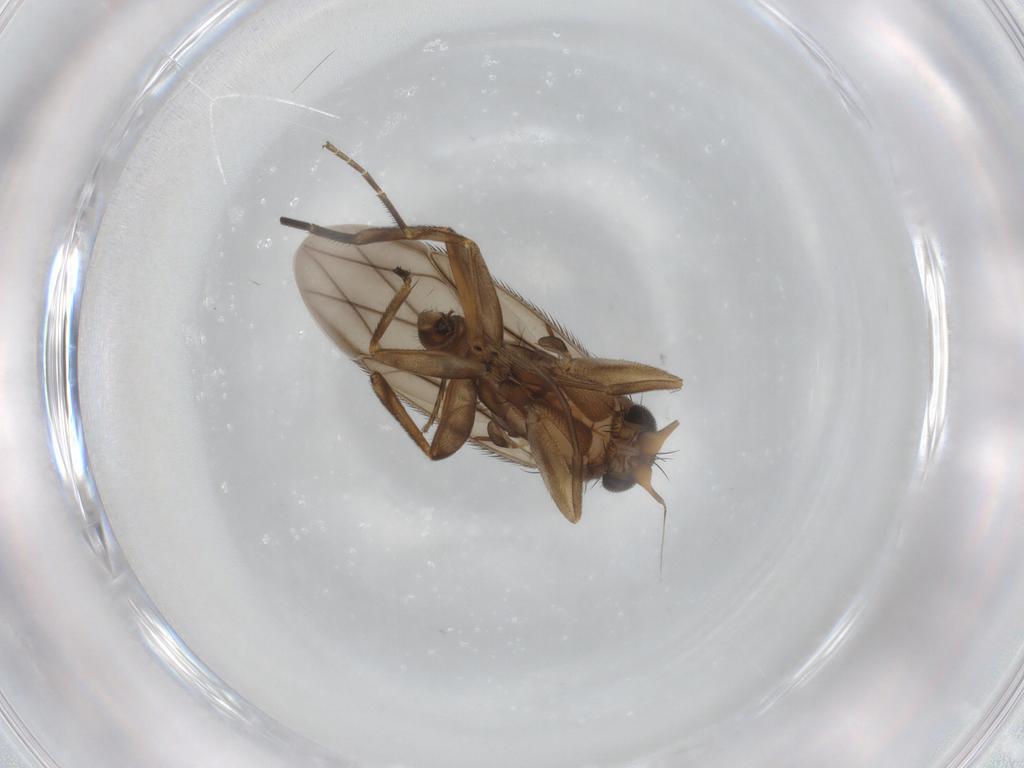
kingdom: Animalia
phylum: Arthropoda
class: Insecta
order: Diptera
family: Phoridae
